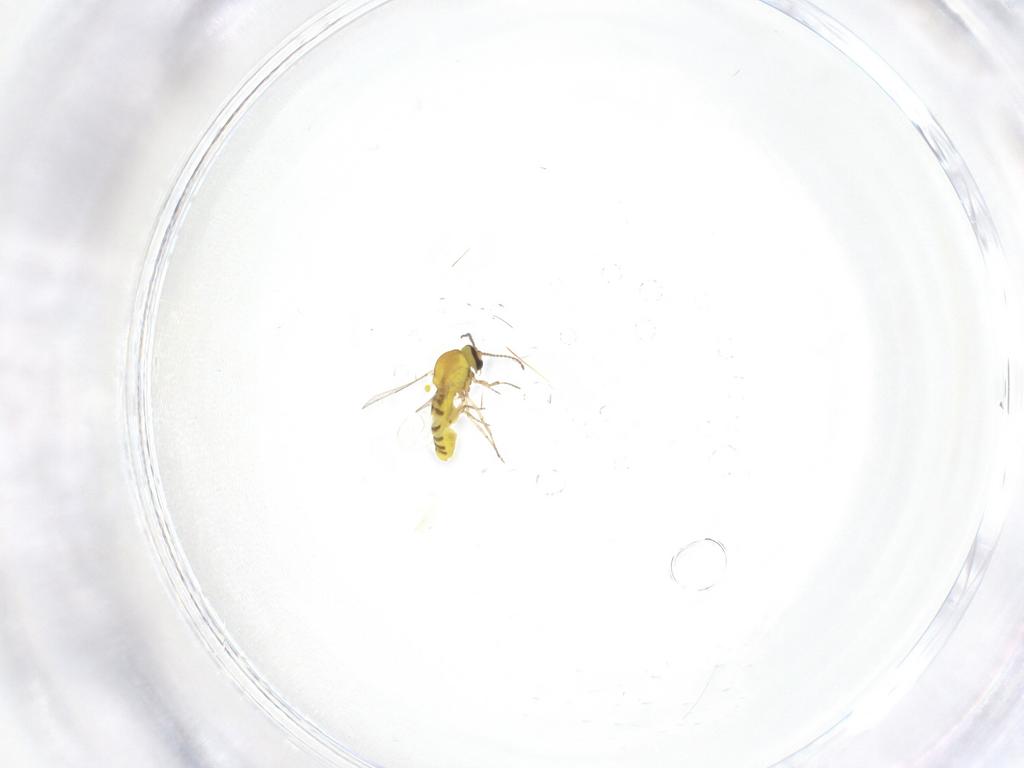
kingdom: Animalia
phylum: Arthropoda
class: Insecta
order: Diptera
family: Ceratopogonidae
